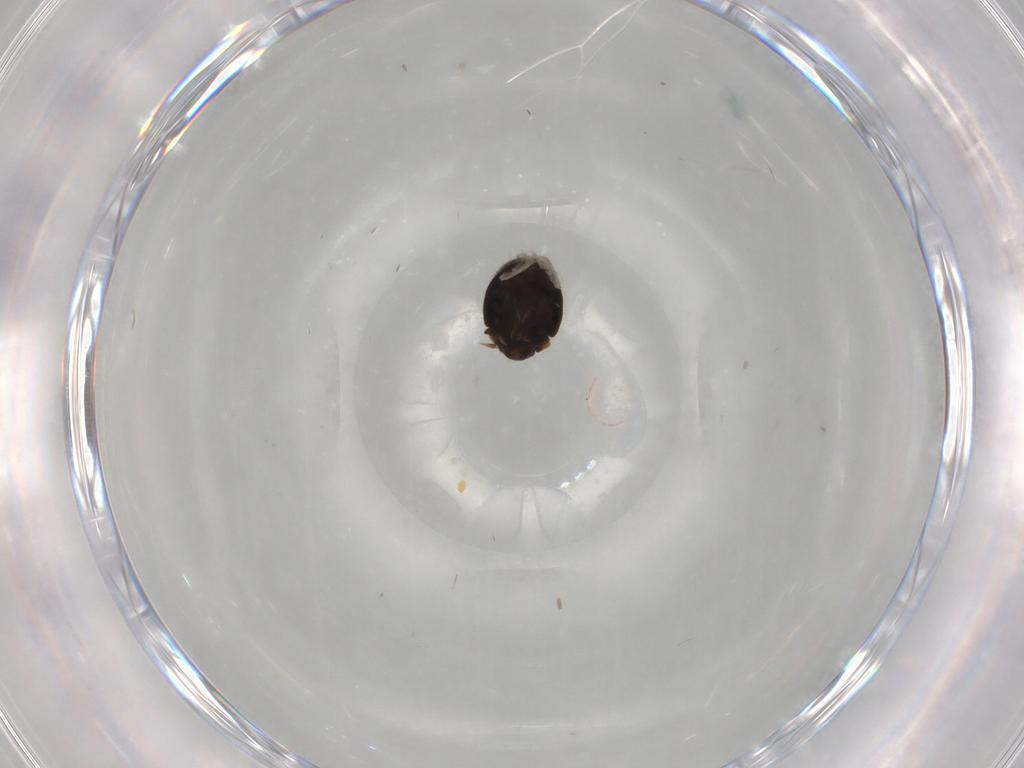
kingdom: Animalia
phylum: Arthropoda
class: Insecta
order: Coleoptera
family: Coccinellidae
